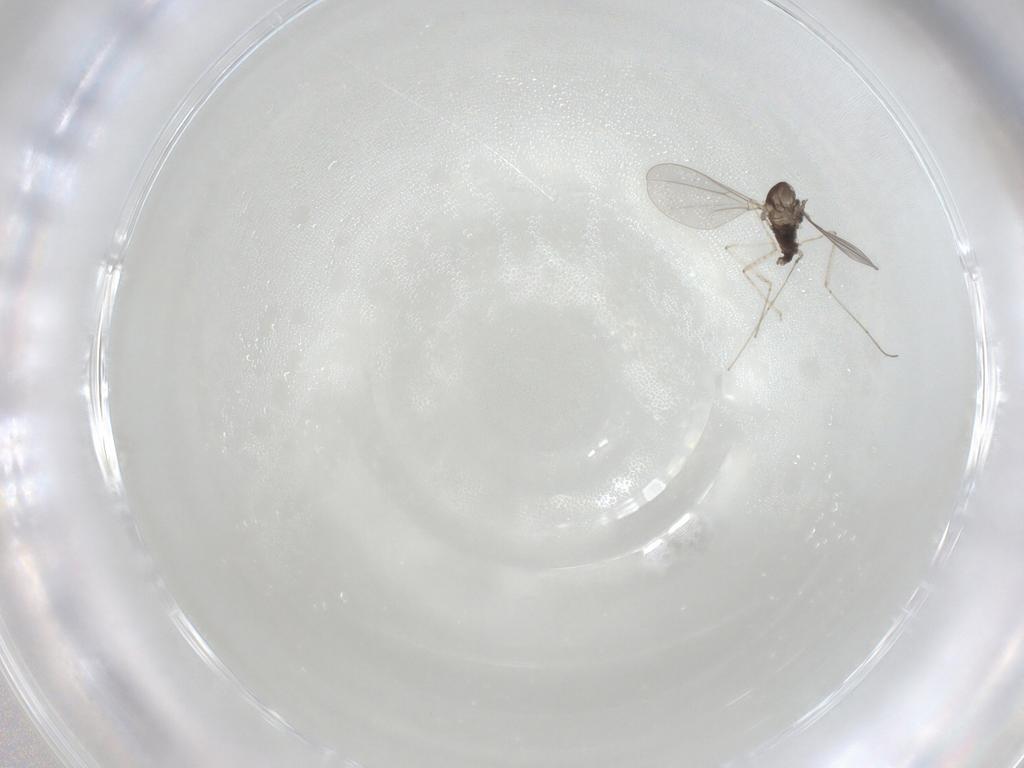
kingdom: Animalia
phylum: Arthropoda
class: Insecta
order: Diptera
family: Cecidomyiidae
